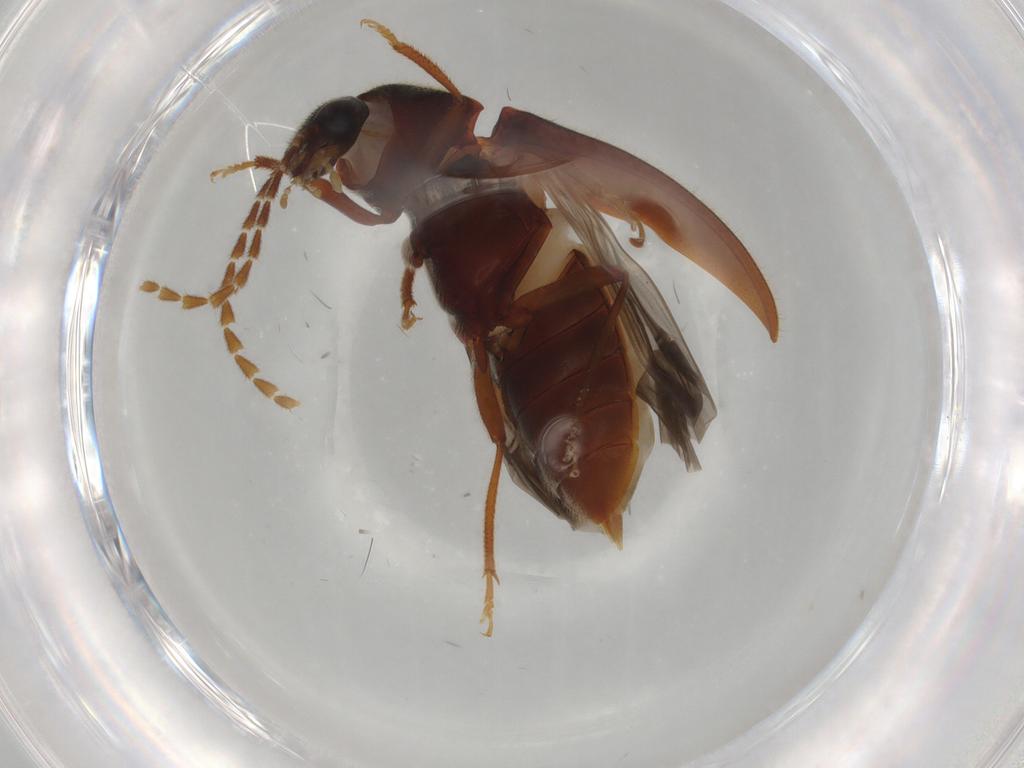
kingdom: Animalia
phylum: Arthropoda
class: Insecta
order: Coleoptera
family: Ptilodactylidae
